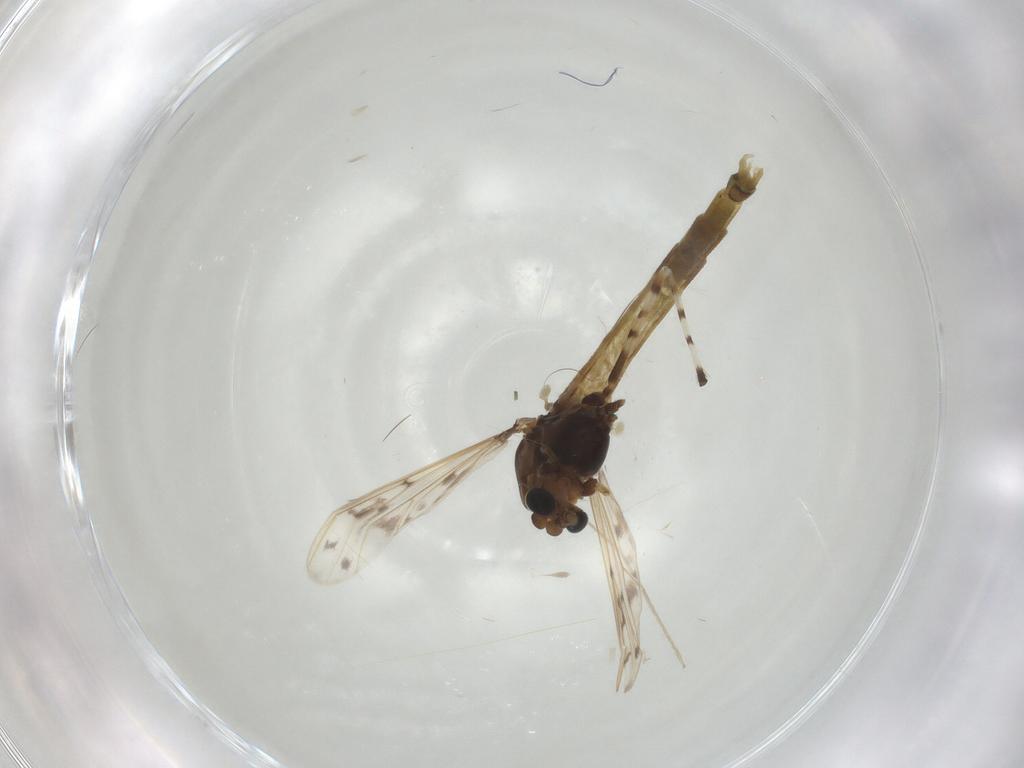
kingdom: Animalia
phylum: Arthropoda
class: Insecta
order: Diptera
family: Chironomidae
